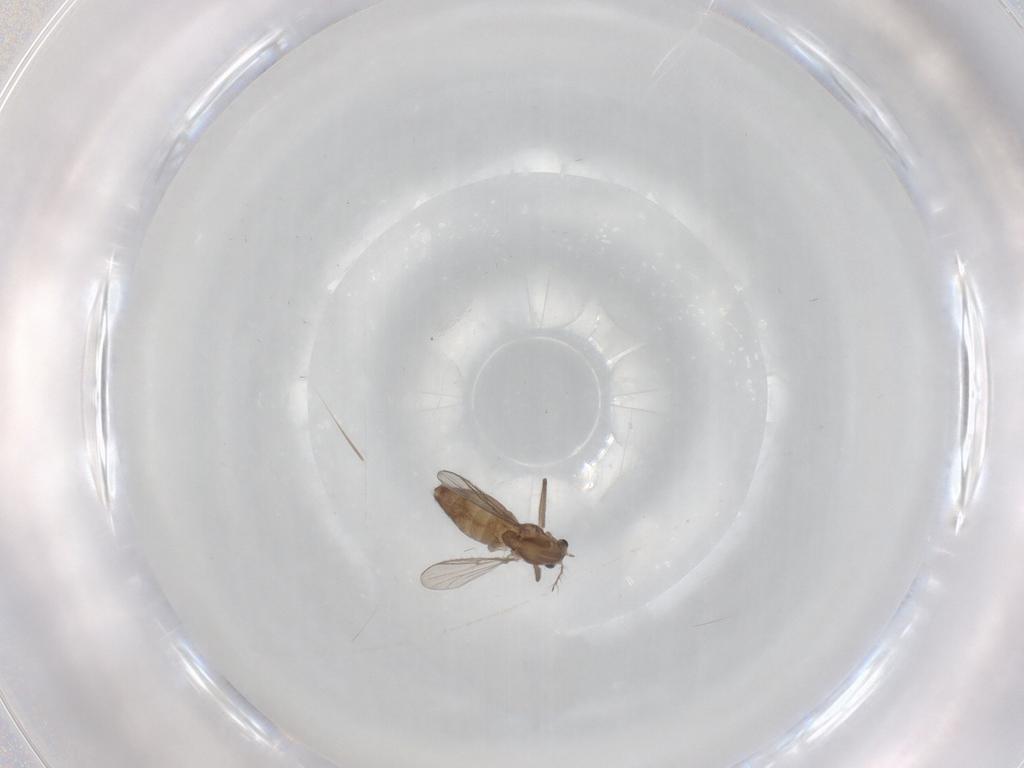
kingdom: Animalia
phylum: Arthropoda
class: Insecta
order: Diptera
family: Chironomidae
